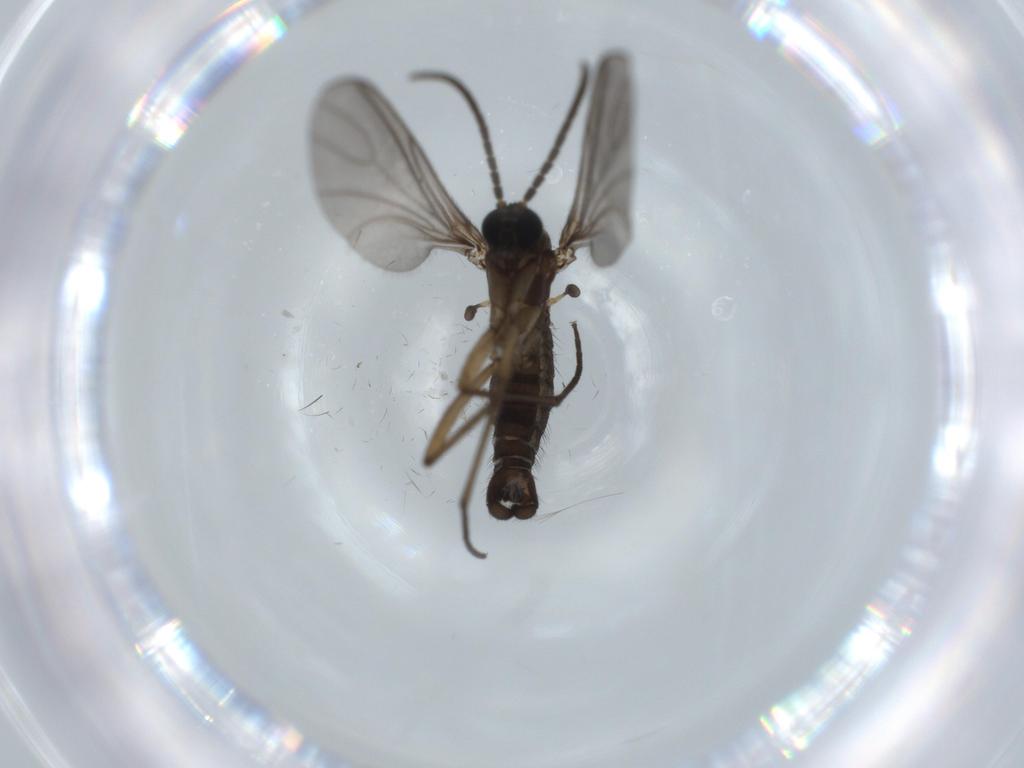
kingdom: Animalia
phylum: Arthropoda
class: Insecta
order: Diptera
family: Sciaridae
